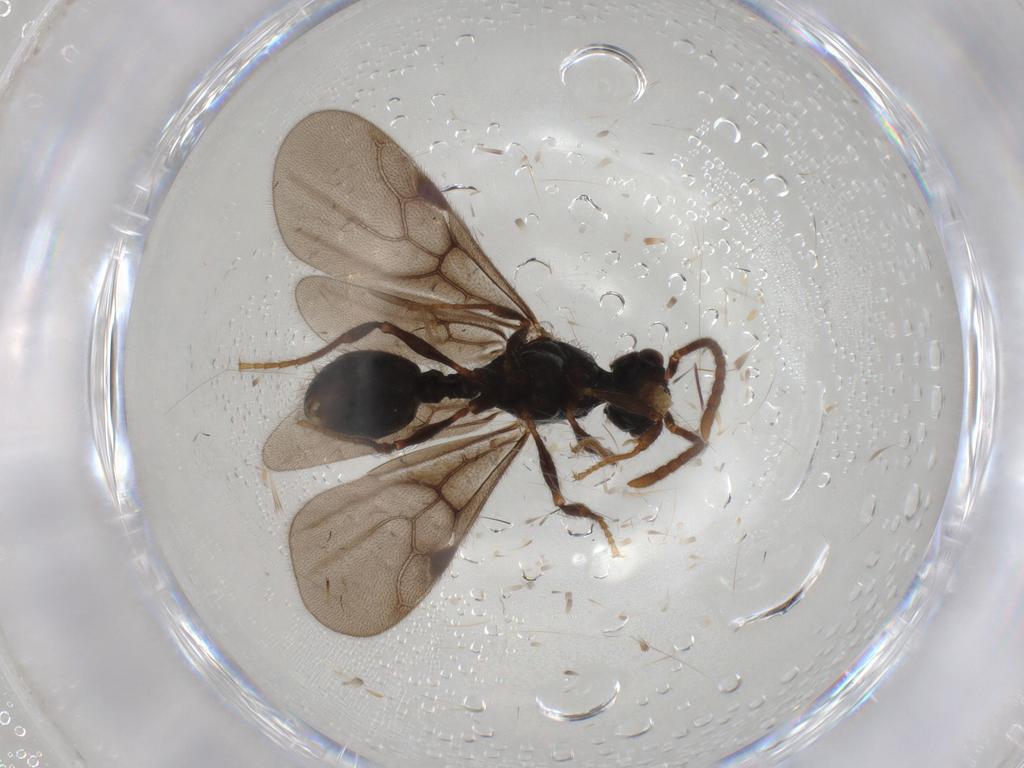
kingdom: Animalia
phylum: Arthropoda
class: Insecta
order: Hymenoptera
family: Formicidae
